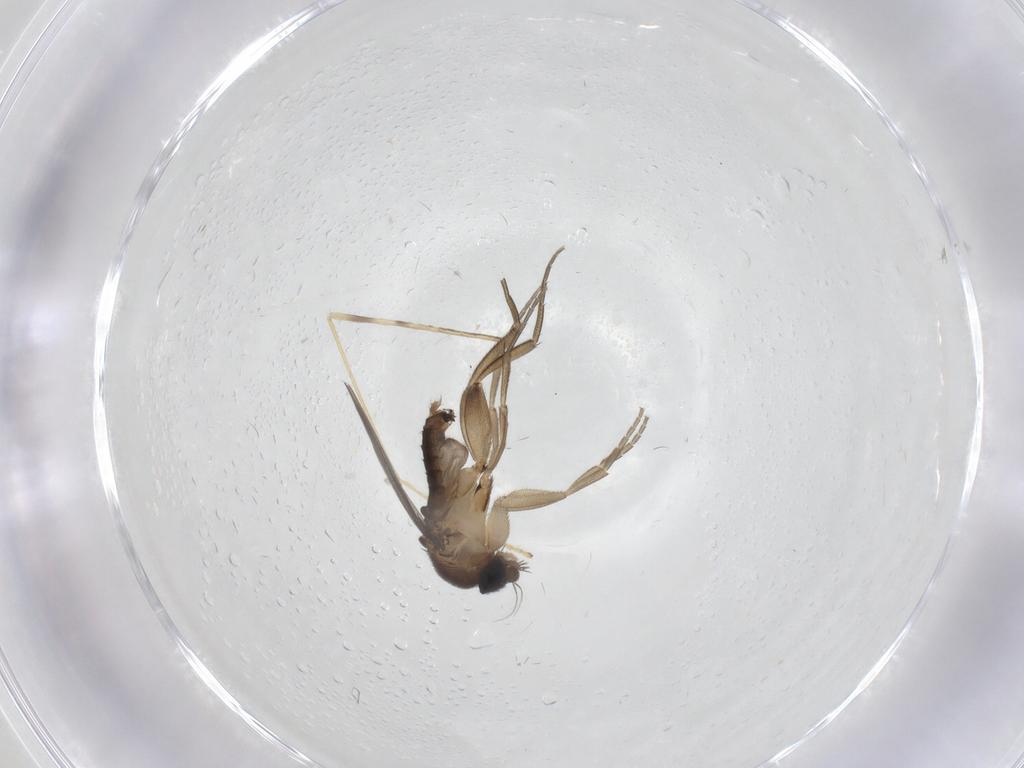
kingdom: Animalia
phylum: Arthropoda
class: Insecta
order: Diptera
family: Phoridae
